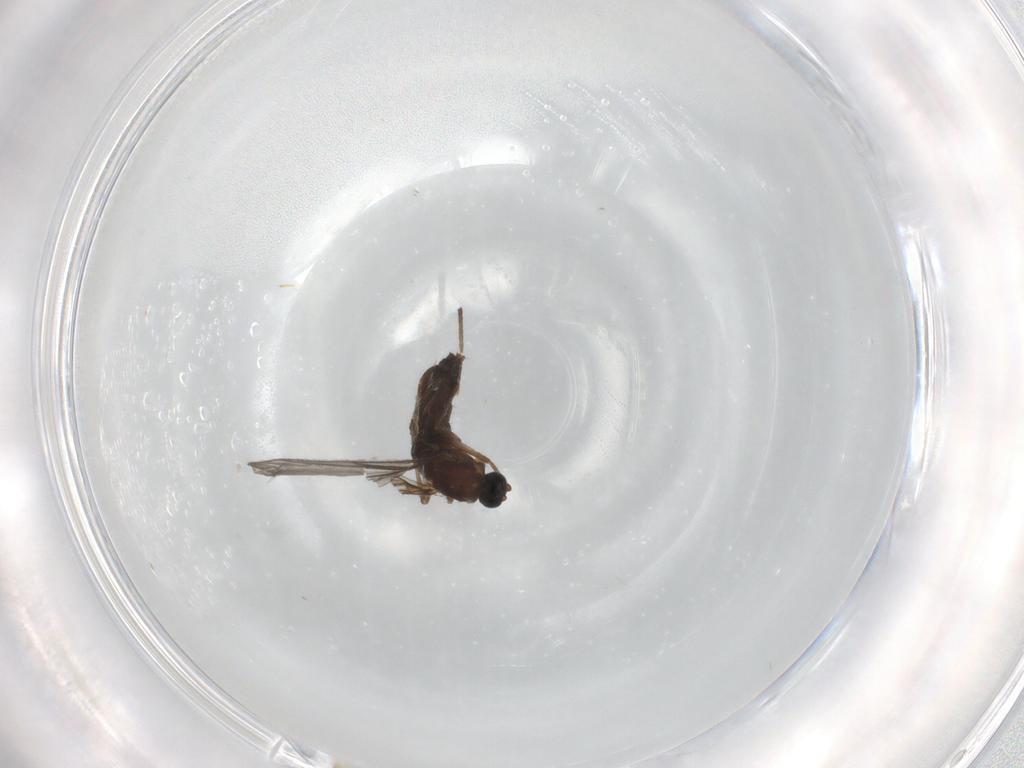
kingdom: Animalia
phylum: Arthropoda
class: Insecta
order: Diptera
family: Sciaridae
